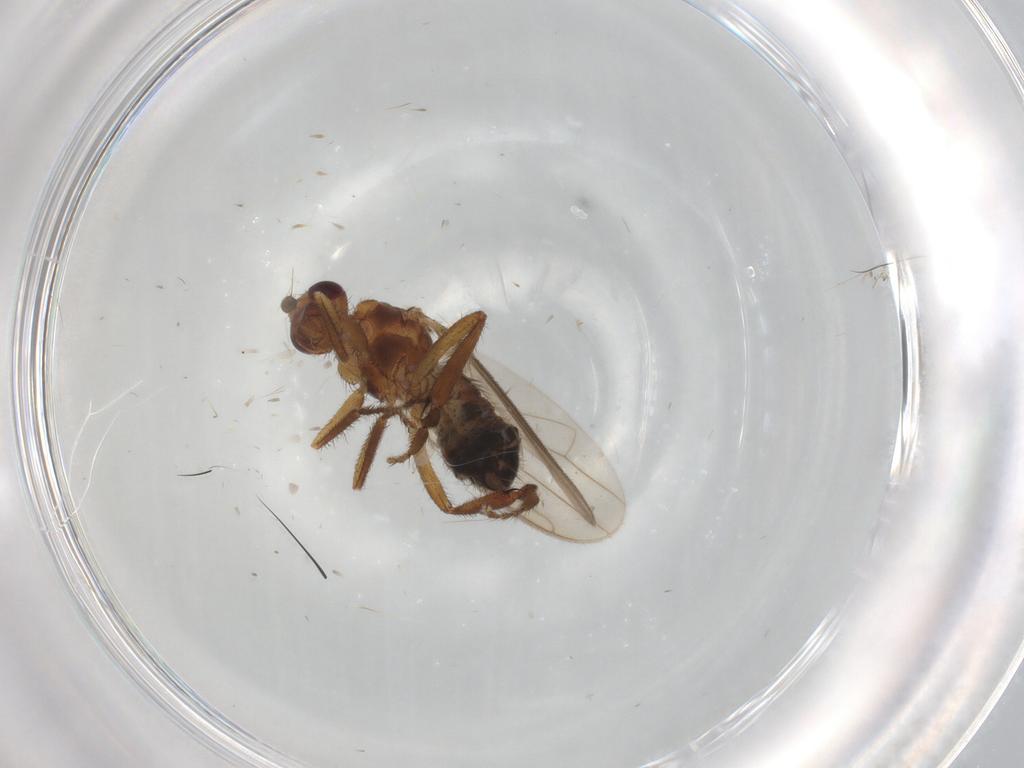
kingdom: Animalia
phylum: Arthropoda
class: Insecta
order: Diptera
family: Sphaeroceridae
